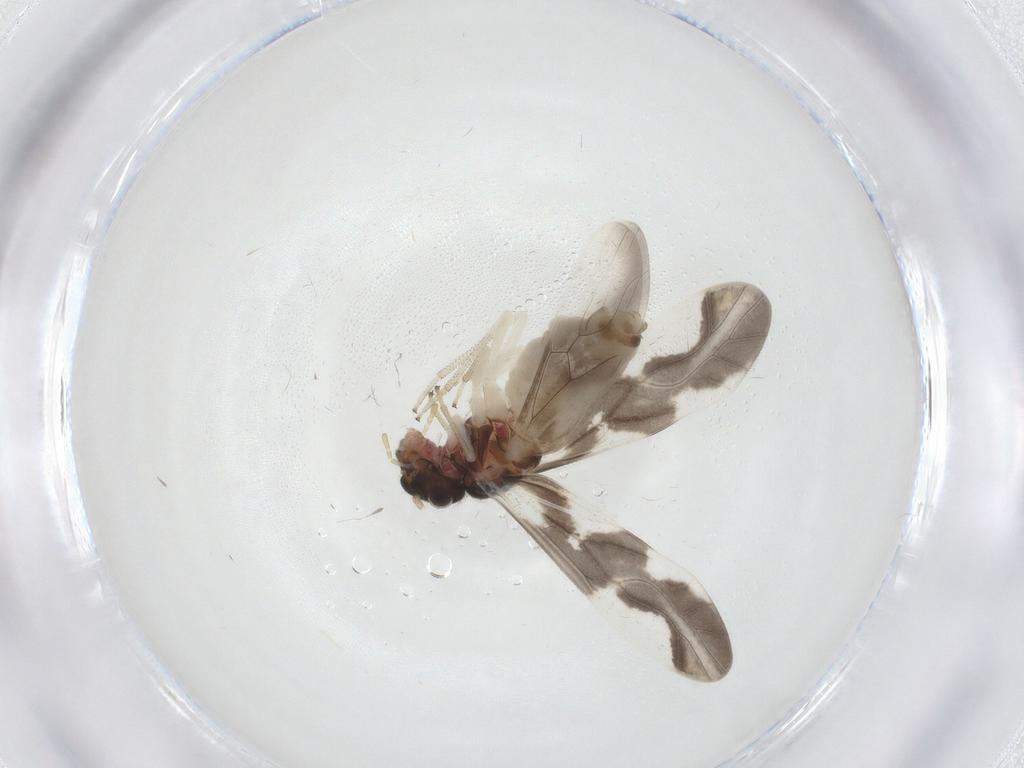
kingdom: Animalia
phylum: Arthropoda
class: Insecta
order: Psocodea
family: Caeciliusidae
